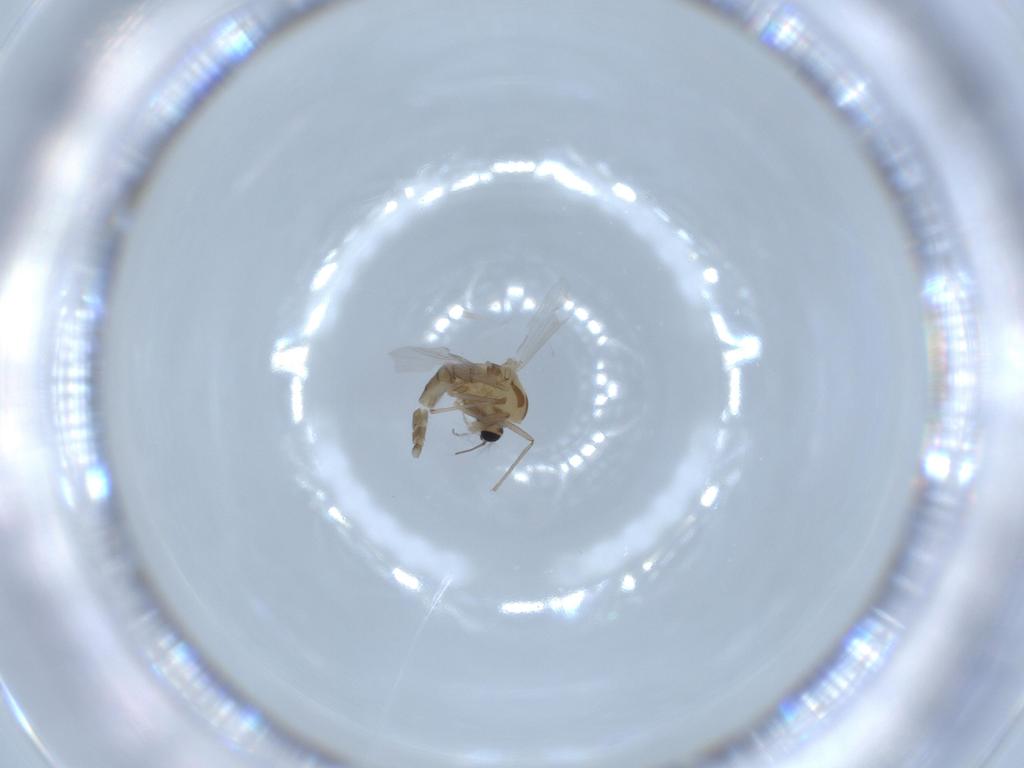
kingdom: Animalia
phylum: Arthropoda
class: Insecta
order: Diptera
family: Chironomidae
